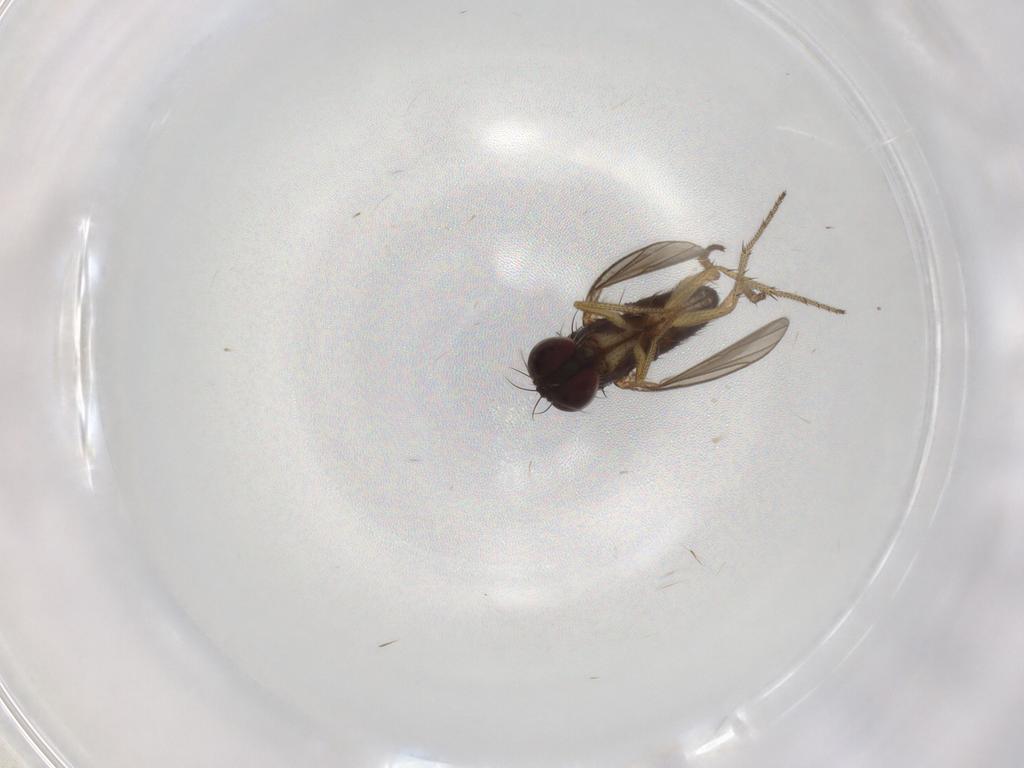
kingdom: Animalia
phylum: Arthropoda
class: Insecta
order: Diptera
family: Dolichopodidae
